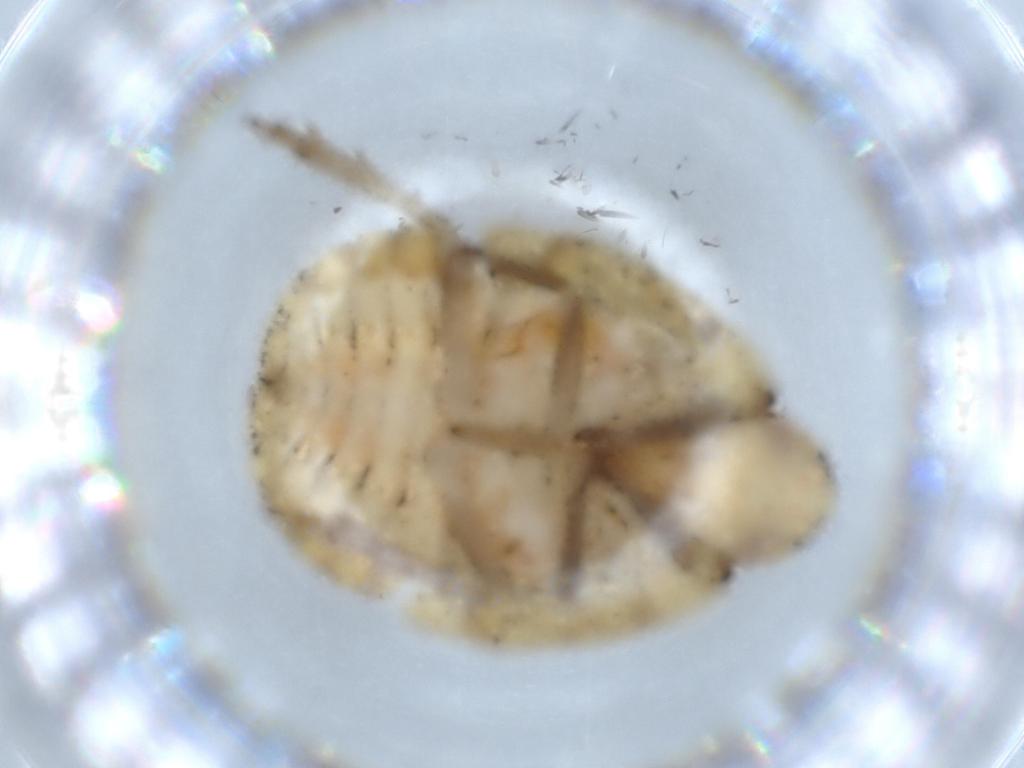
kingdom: Animalia
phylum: Arthropoda
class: Insecta
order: Hemiptera
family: Flatidae
